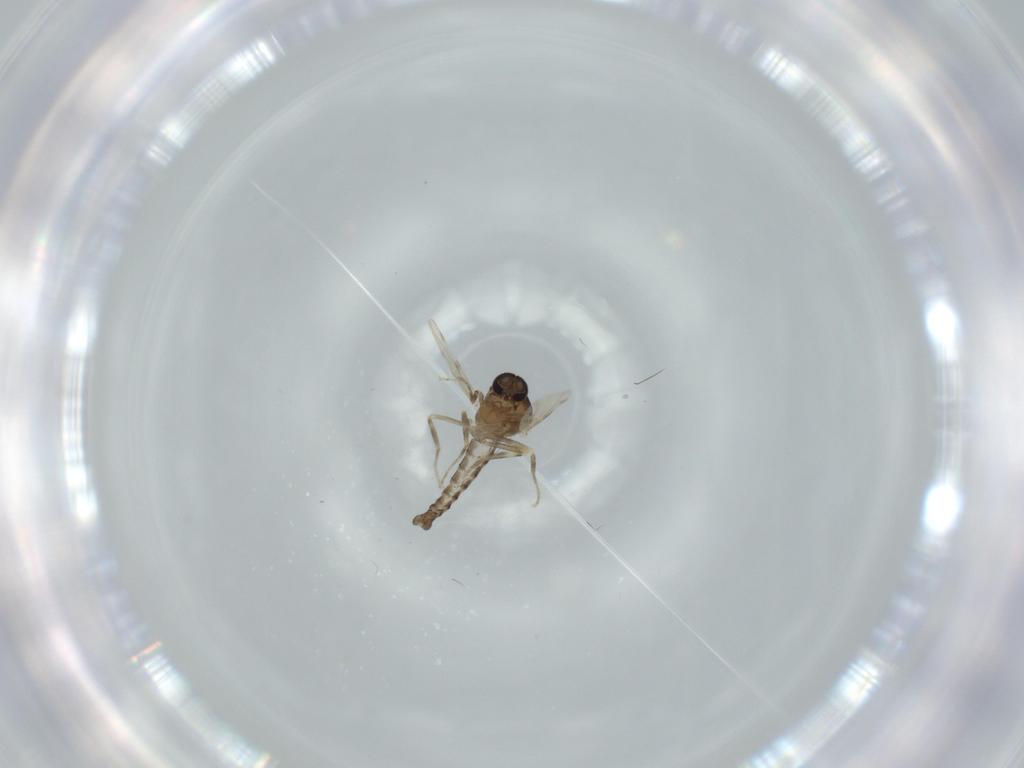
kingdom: Animalia
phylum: Arthropoda
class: Insecta
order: Diptera
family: Ceratopogonidae
